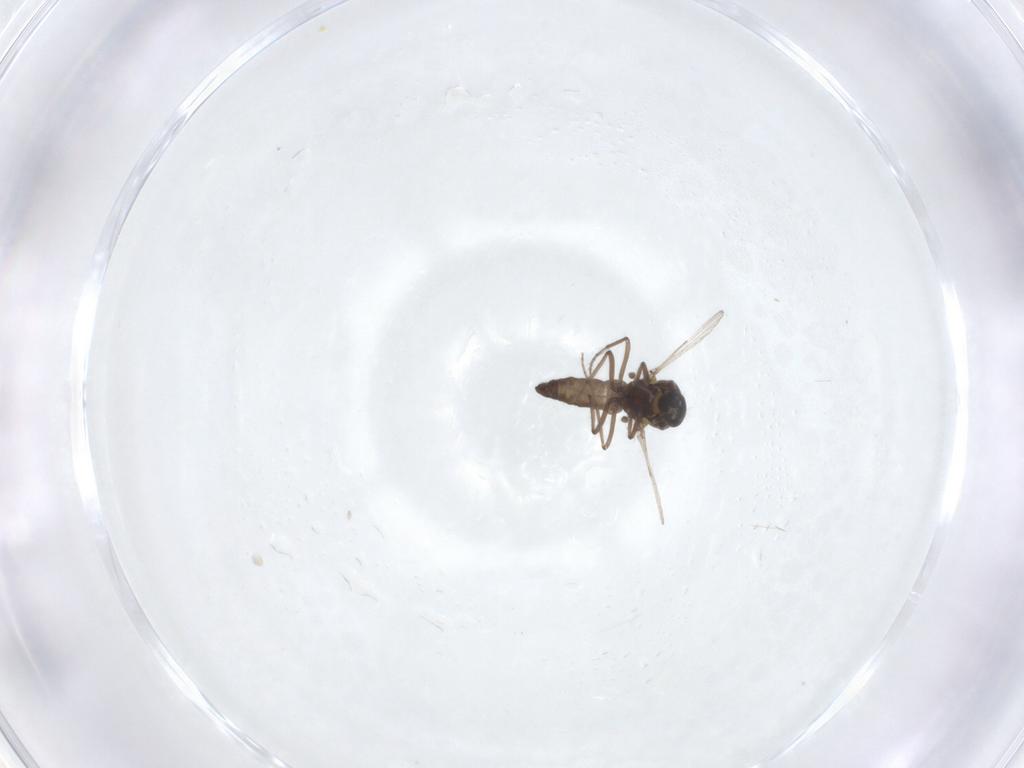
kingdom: Animalia
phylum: Arthropoda
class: Insecta
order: Diptera
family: Ceratopogonidae
